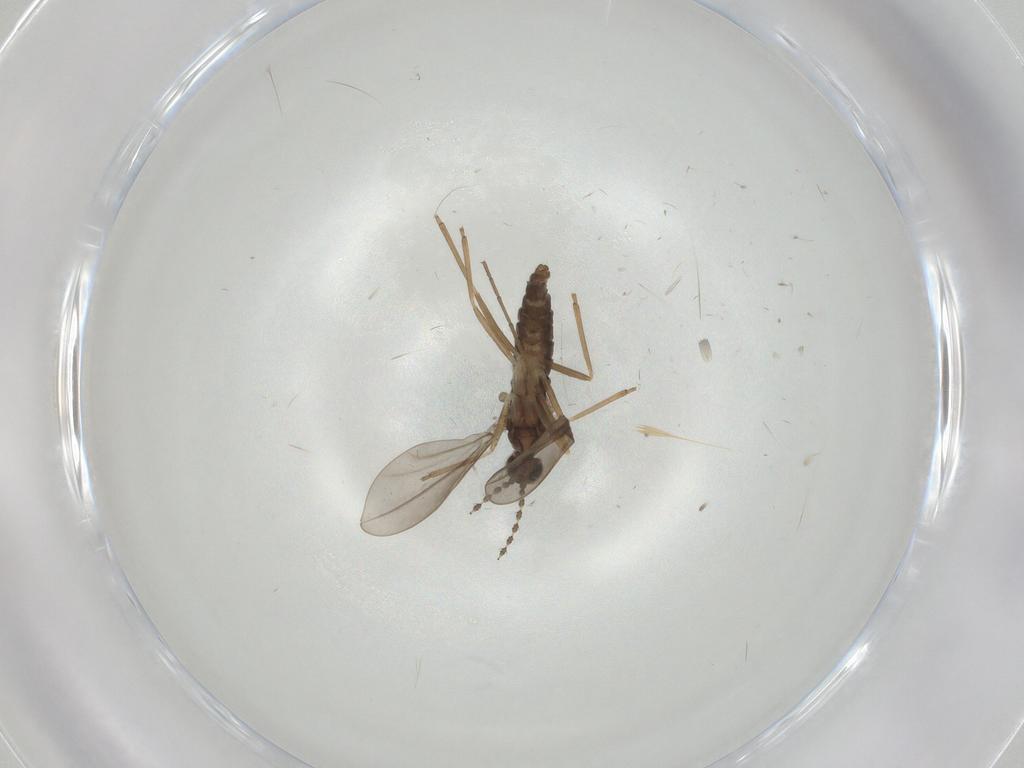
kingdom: Animalia
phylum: Arthropoda
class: Insecta
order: Diptera
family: Cecidomyiidae
